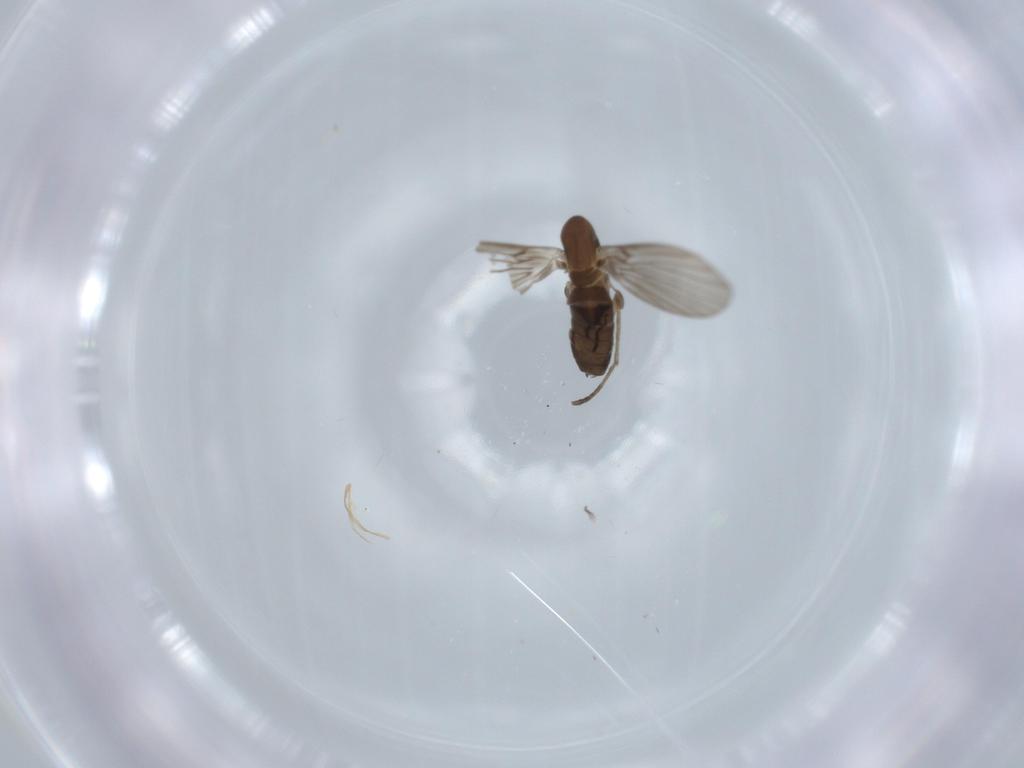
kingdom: Animalia
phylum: Arthropoda
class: Insecta
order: Diptera
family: Psychodidae
